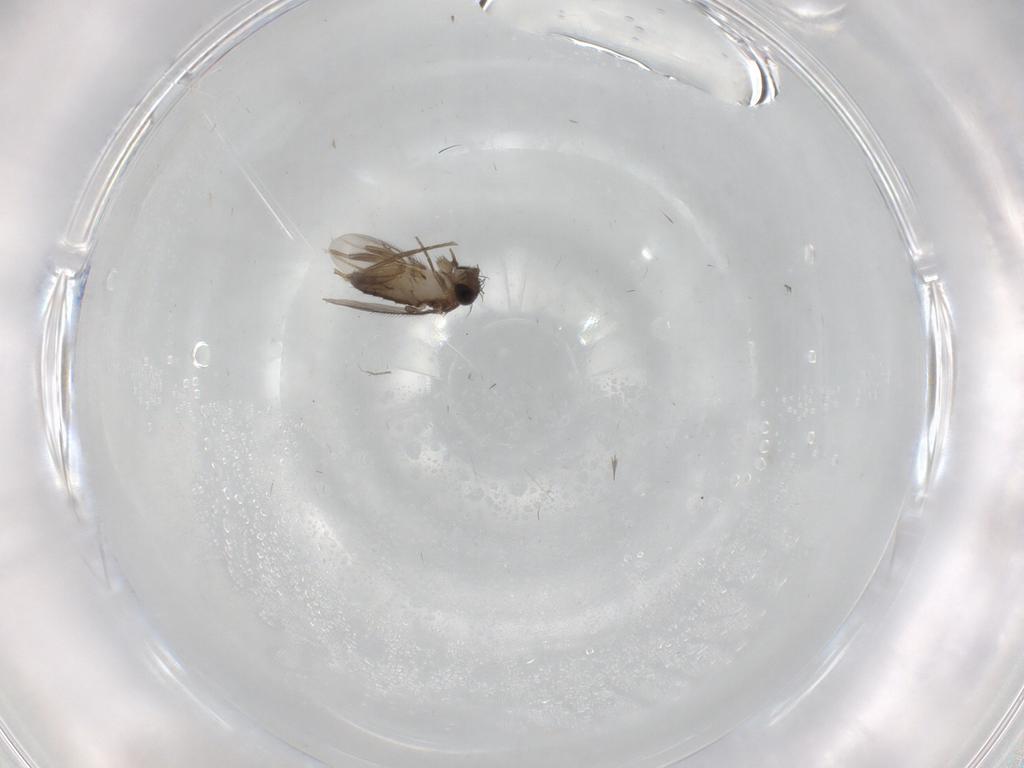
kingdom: Animalia
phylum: Arthropoda
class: Insecta
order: Diptera
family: Phoridae
